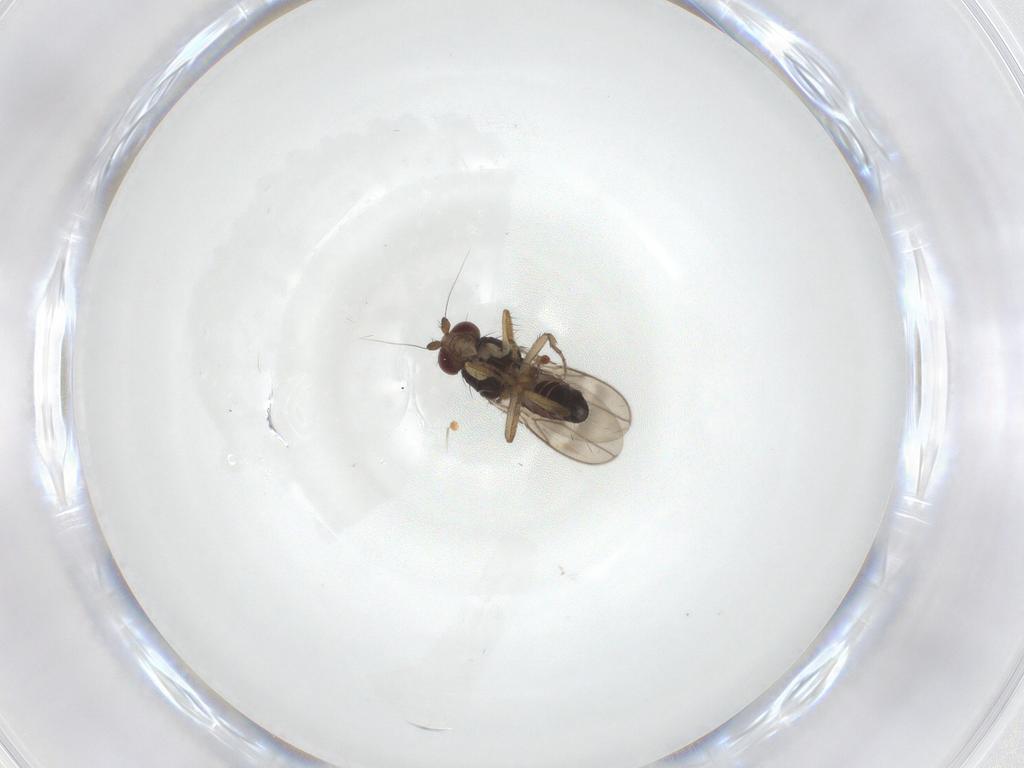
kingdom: Animalia
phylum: Arthropoda
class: Insecta
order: Diptera
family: Sphaeroceridae
